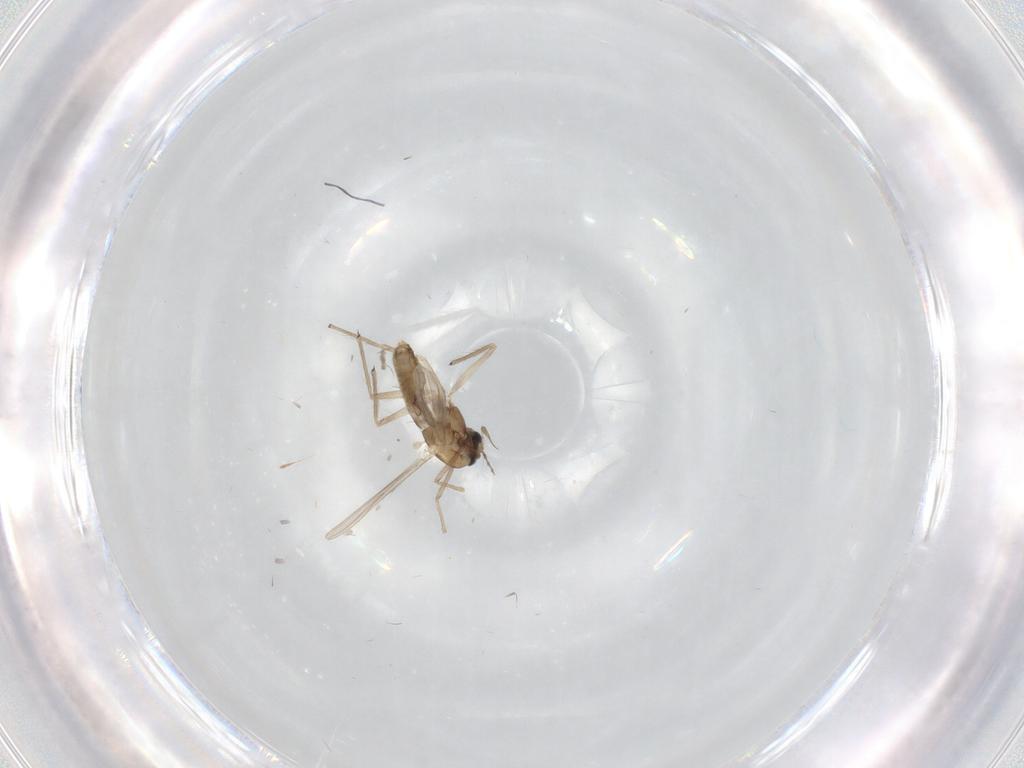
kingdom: Animalia
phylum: Arthropoda
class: Insecta
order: Diptera
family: Chironomidae
